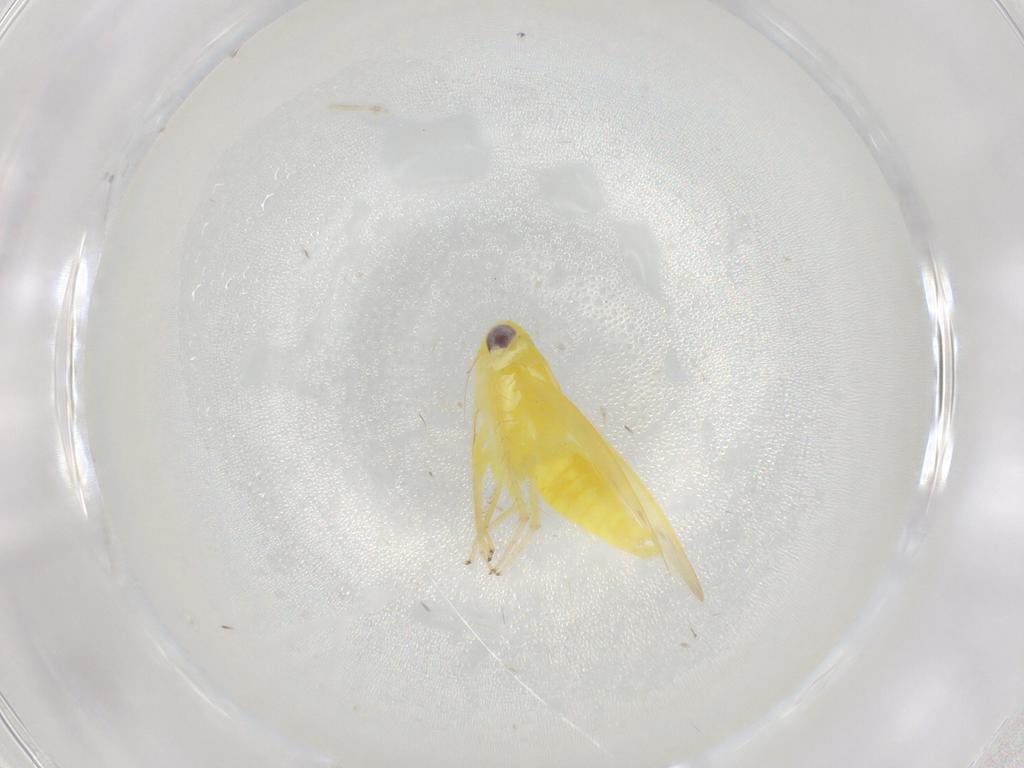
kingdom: Animalia
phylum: Arthropoda
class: Insecta
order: Hemiptera
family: Cicadellidae
